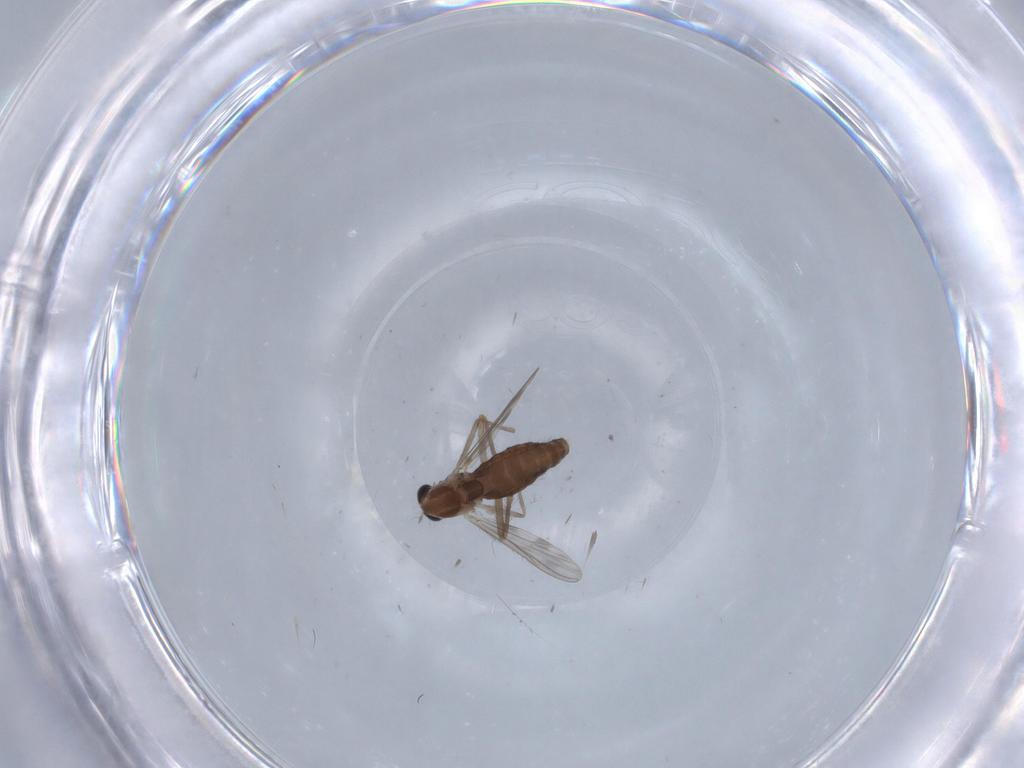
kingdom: Animalia
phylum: Arthropoda
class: Insecta
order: Diptera
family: Chironomidae
